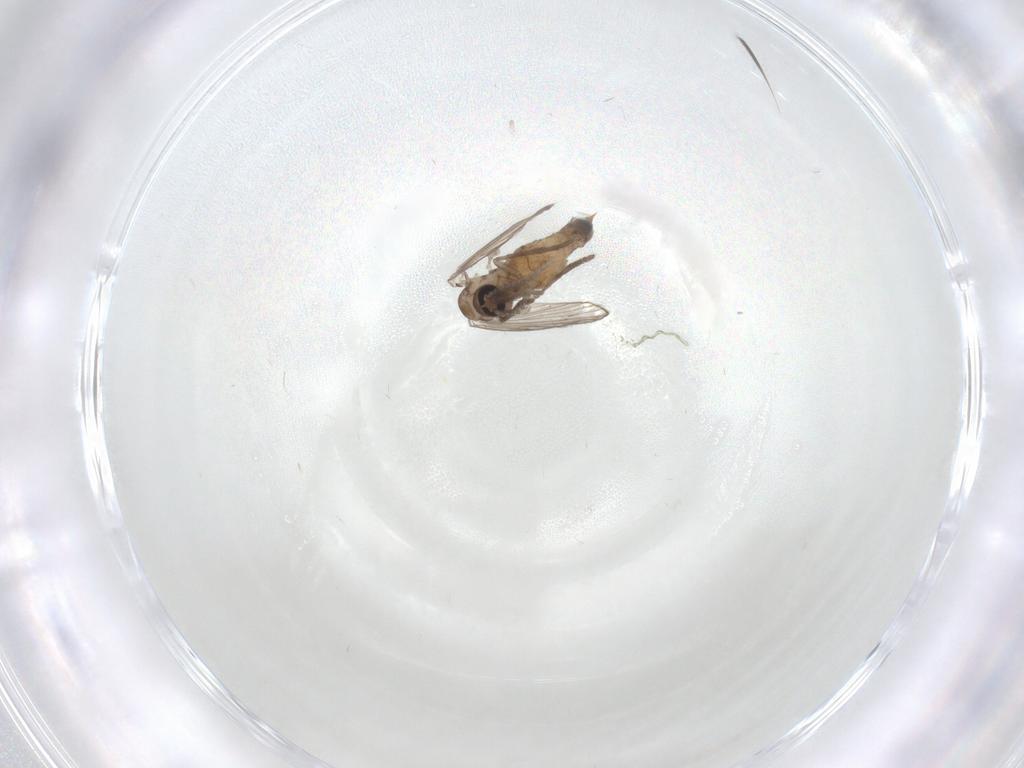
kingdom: Animalia
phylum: Arthropoda
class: Insecta
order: Diptera
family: Psychodidae
